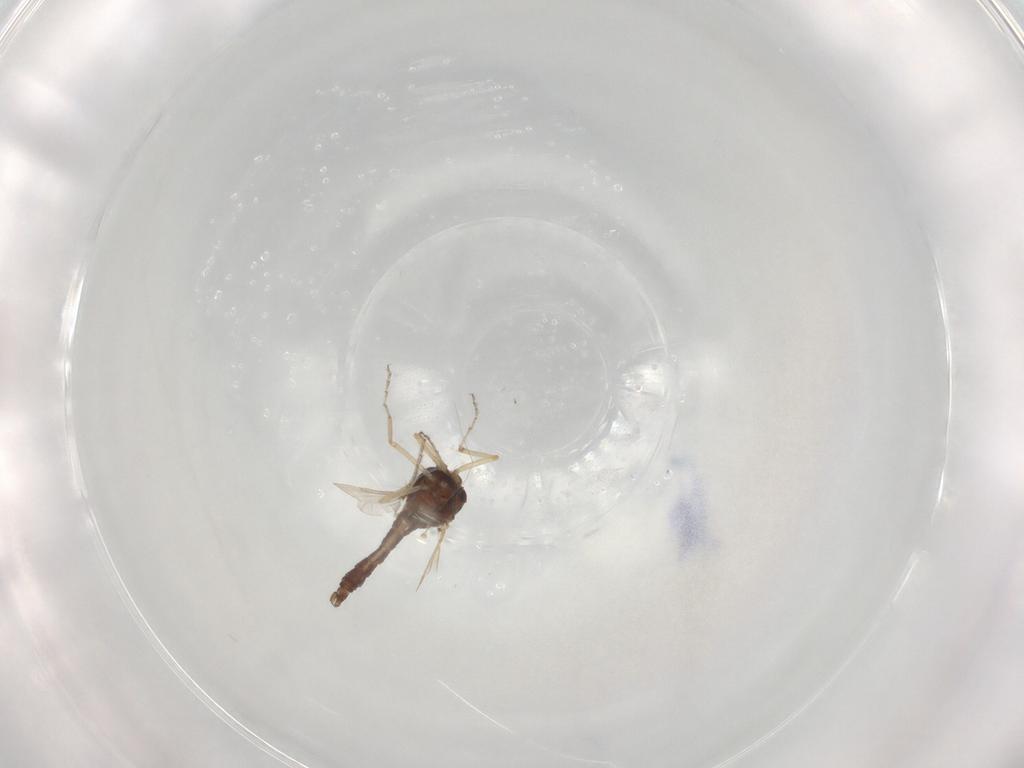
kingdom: Animalia
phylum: Arthropoda
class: Insecta
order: Diptera
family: Ceratopogonidae
